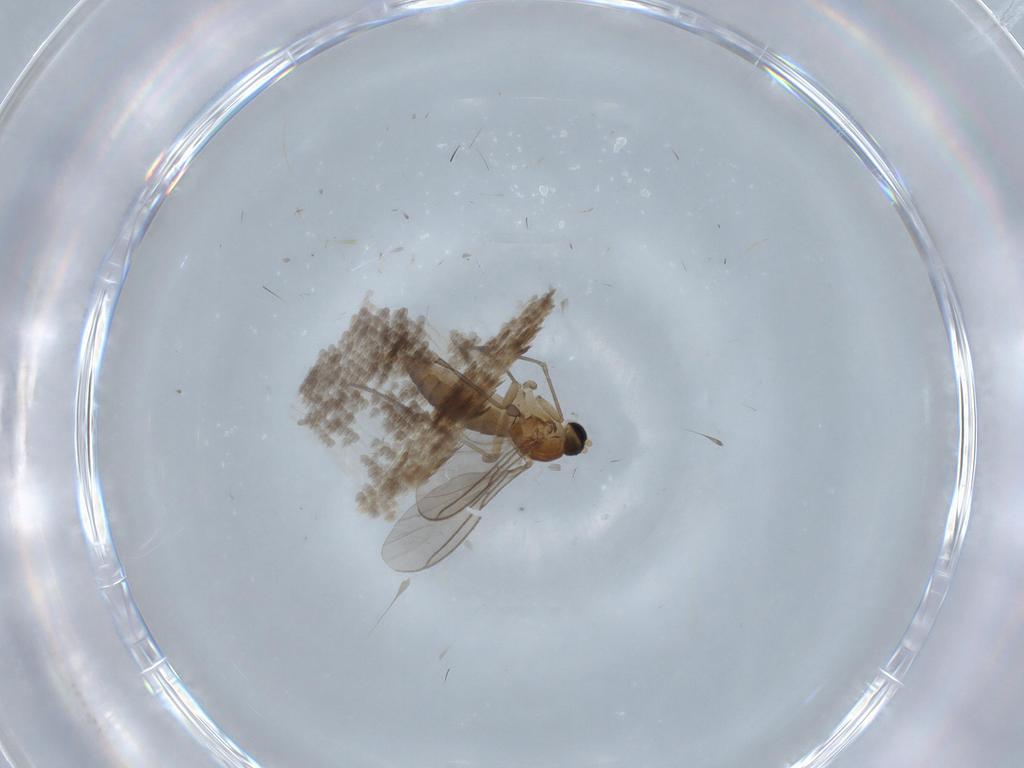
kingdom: Animalia
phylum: Arthropoda
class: Insecta
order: Diptera
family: Sciaridae
